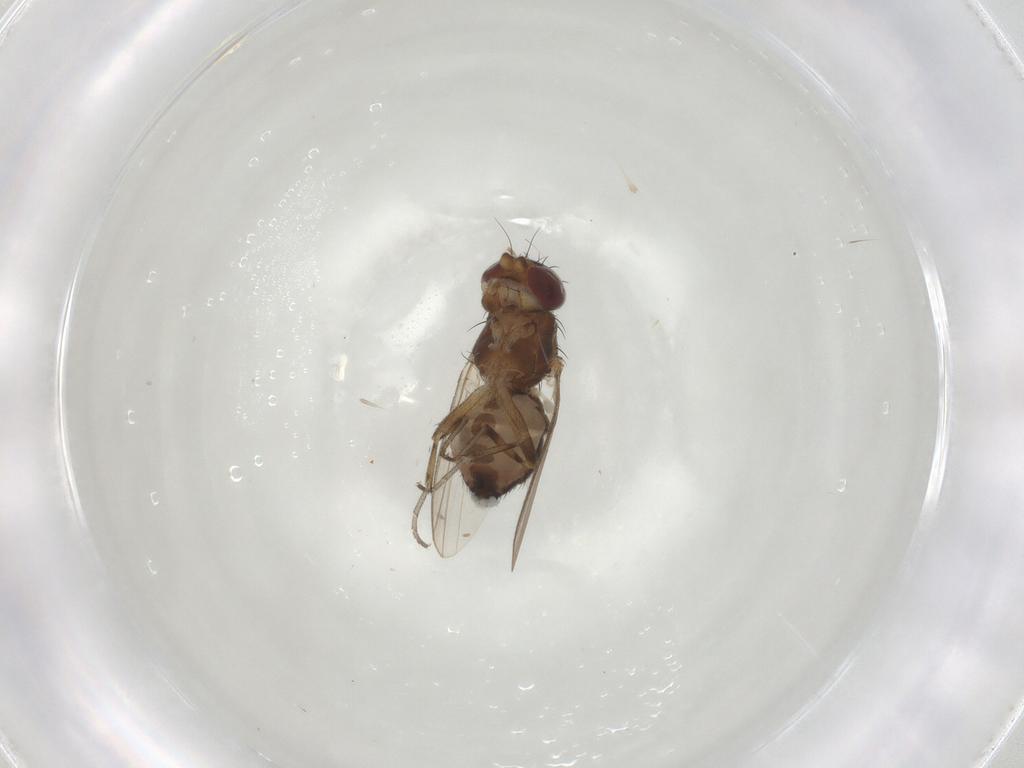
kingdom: Animalia
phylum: Arthropoda
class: Insecta
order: Diptera
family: Heleomyzidae
